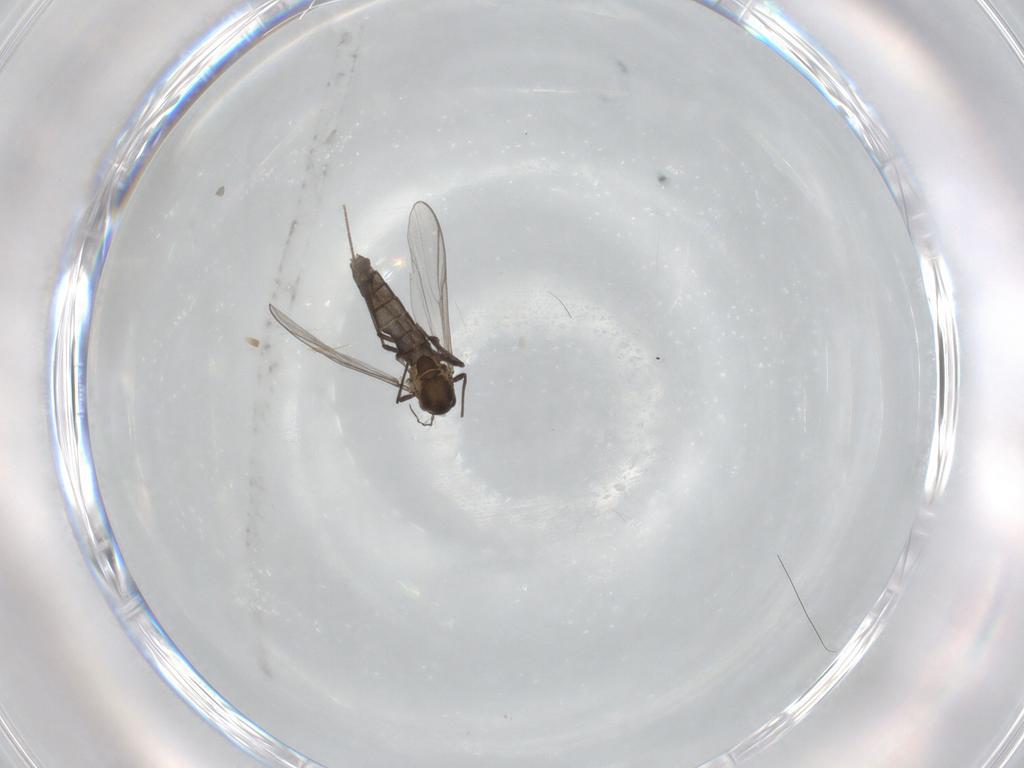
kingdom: Animalia
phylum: Arthropoda
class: Insecta
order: Diptera
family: Chironomidae
